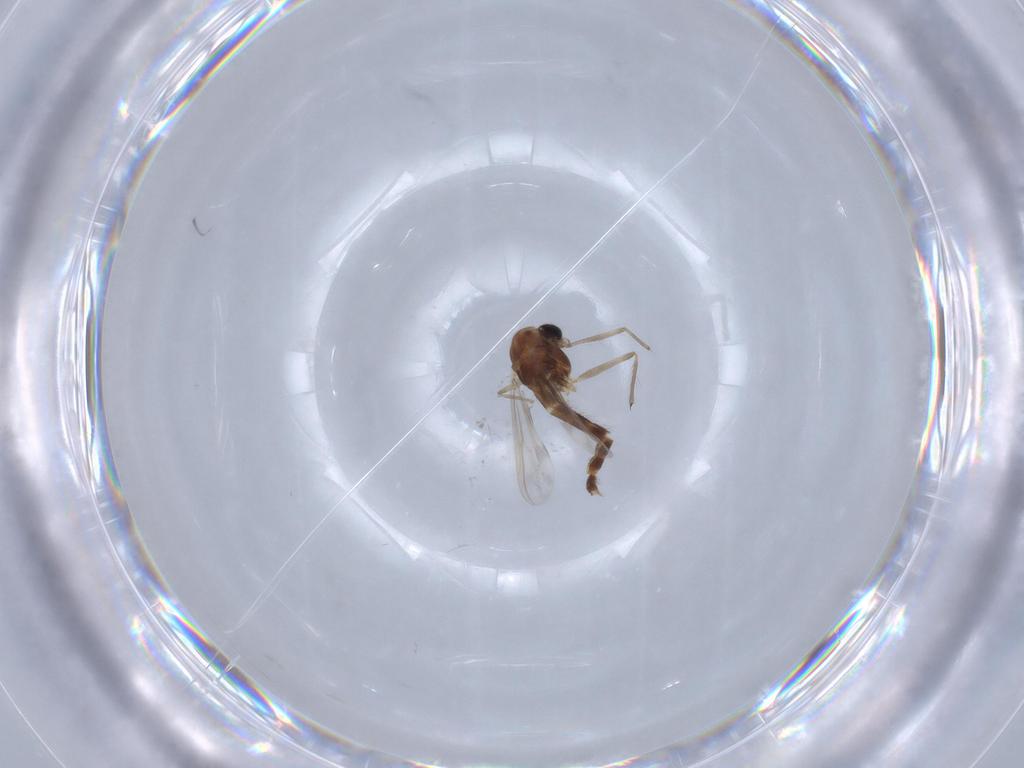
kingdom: Animalia
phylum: Arthropoda
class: Insecta
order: Diptera
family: Chironomidae
